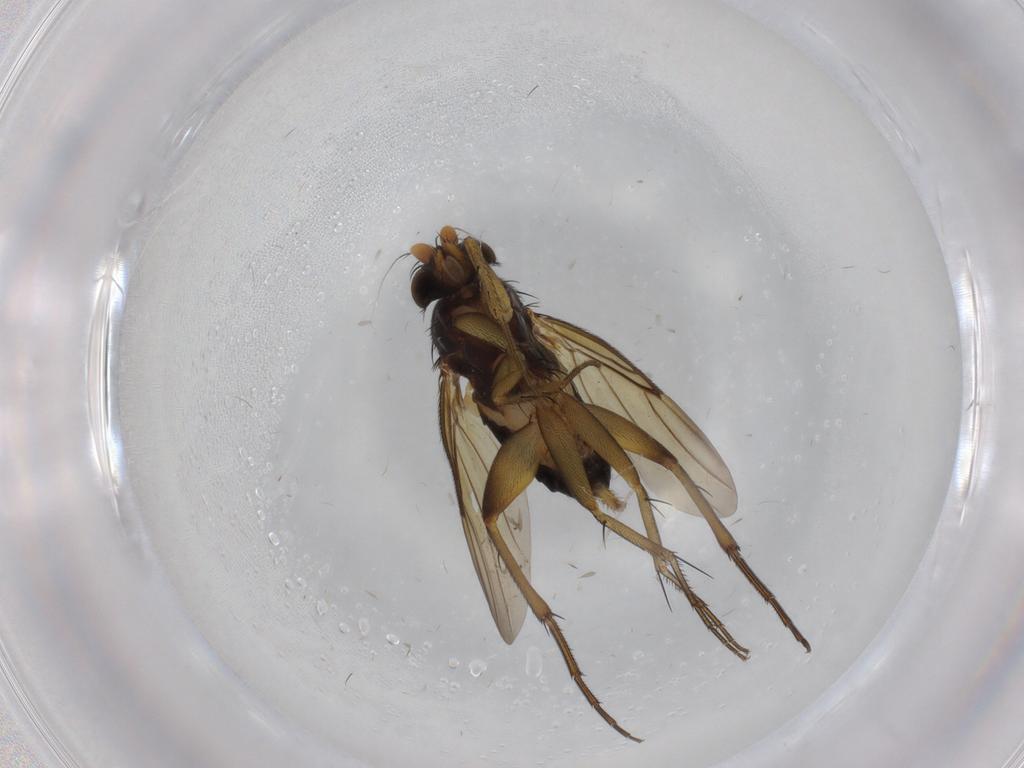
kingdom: Animalia
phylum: Arthropoda
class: Insecta
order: Diptera
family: Phoridae
